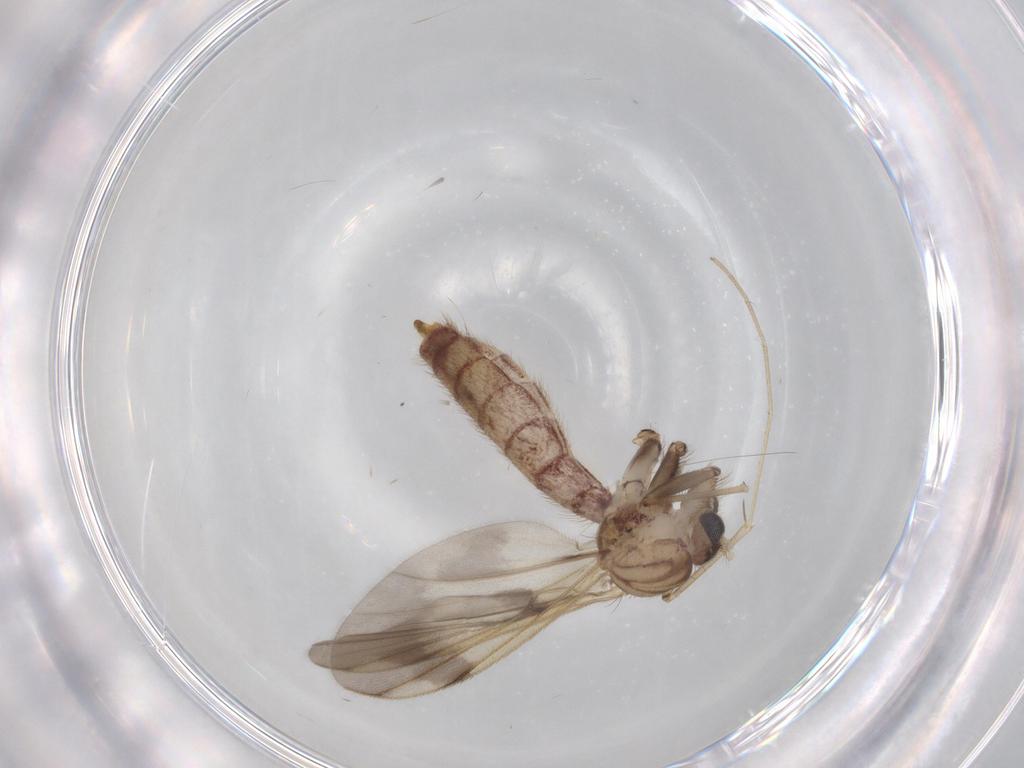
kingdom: Animalia
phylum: Arthropoda
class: Insecta
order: Diptera
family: Mycetophilidae
